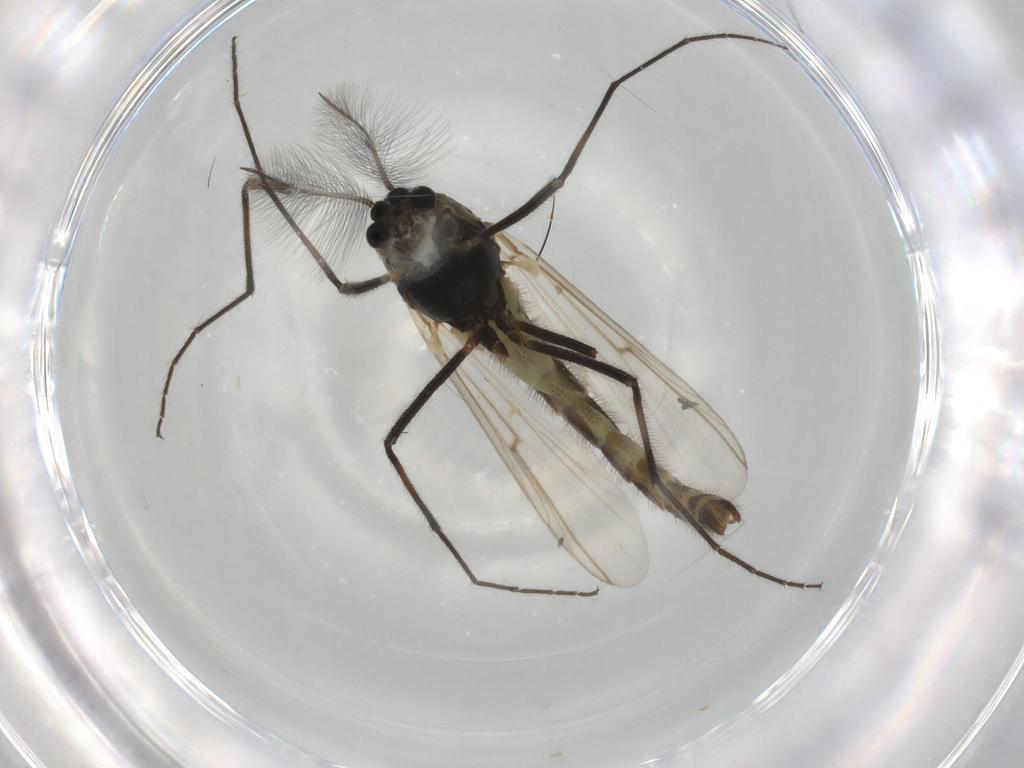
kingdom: Animalia
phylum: Arthropoda
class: Insecta
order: Diptera
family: Chironomidae
